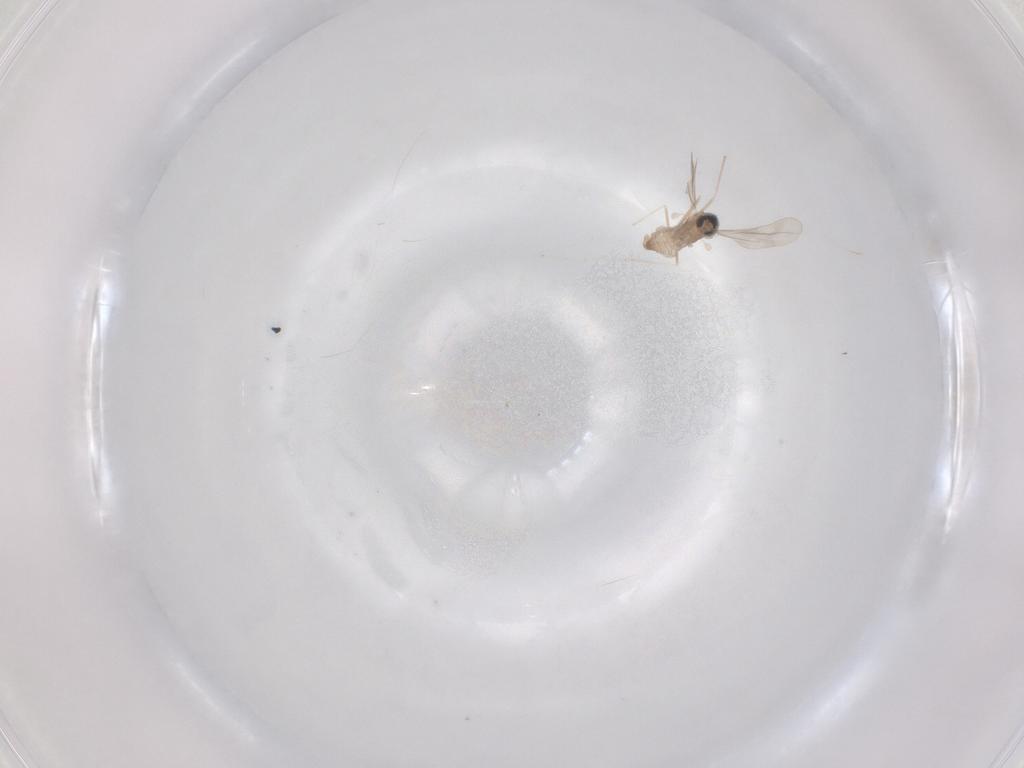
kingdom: Animalia
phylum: Arthropoda
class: Insecta
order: Diptera
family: Cecidomyiidae
